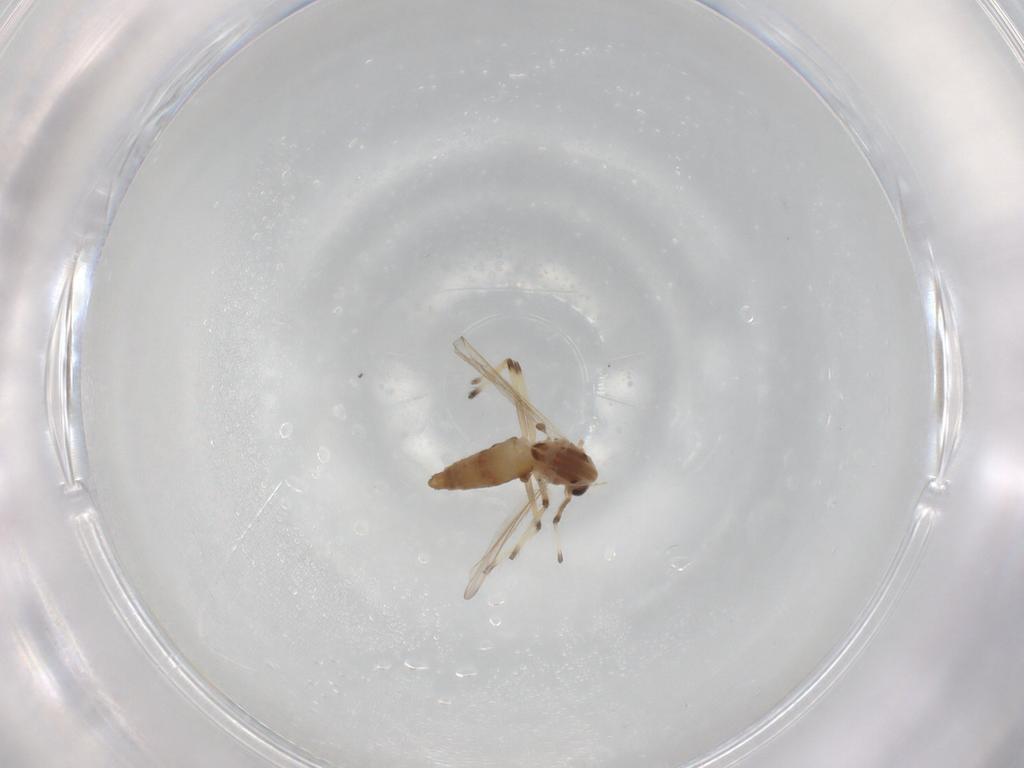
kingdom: Animalia
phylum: Arthropoda
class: Insecta
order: Diptera
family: Chironomidae
